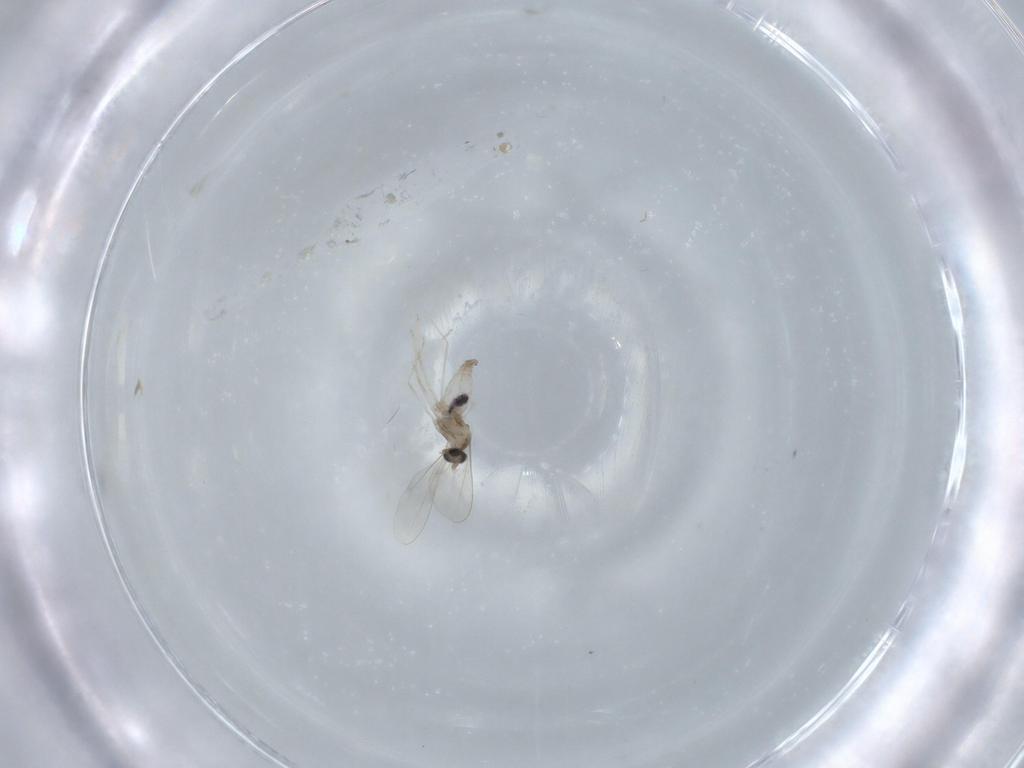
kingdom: Animalia
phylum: Arthropoda
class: Insecta
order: Diptera
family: Cecidomyiidae
